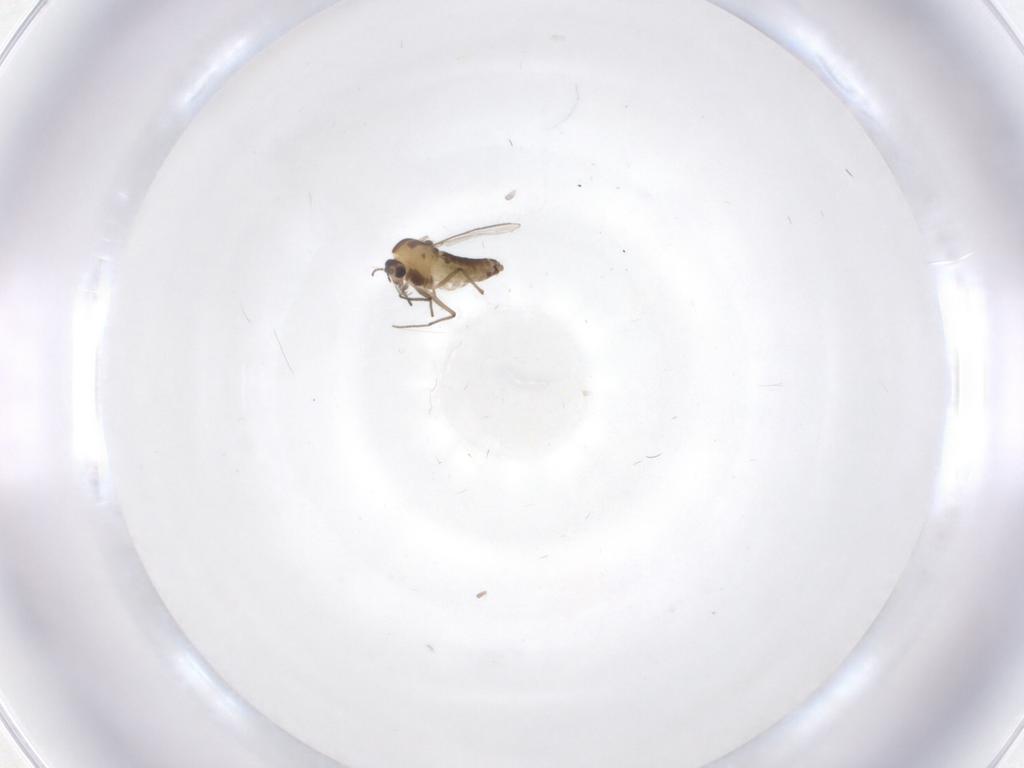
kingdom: Animalia
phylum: Arthropoda
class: Insecta
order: Diptera
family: Chironomidae
